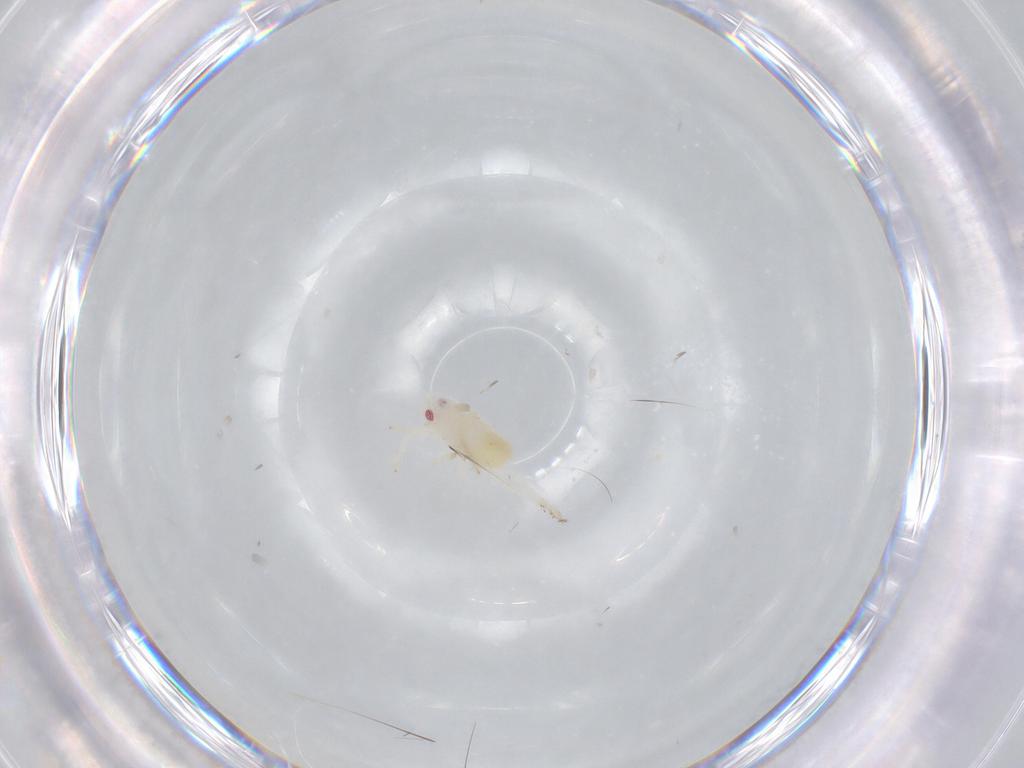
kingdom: Animalia
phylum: Arthropoda
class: Insecta
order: Hemiptera
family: Flatidae
